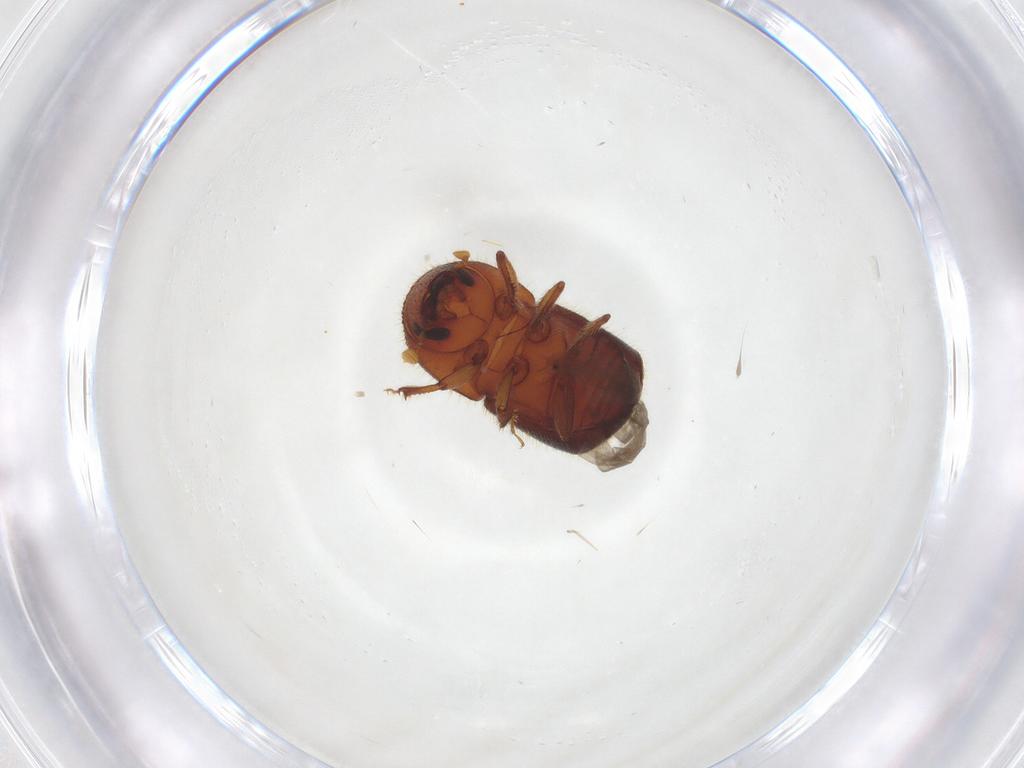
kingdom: Animalia
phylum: Arthropoda
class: Insecta
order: Coleoptera
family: Curculionidae
